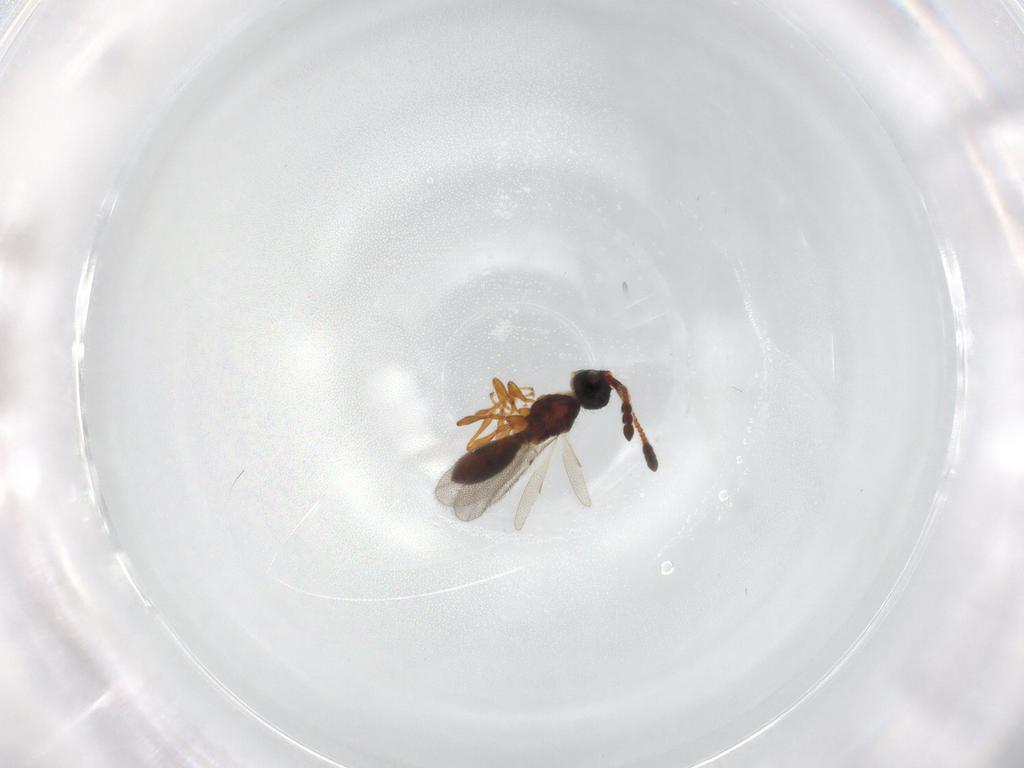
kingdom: Animalia
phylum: Arthropoda
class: Insecta
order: Hymenoptera
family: Diapriidae
